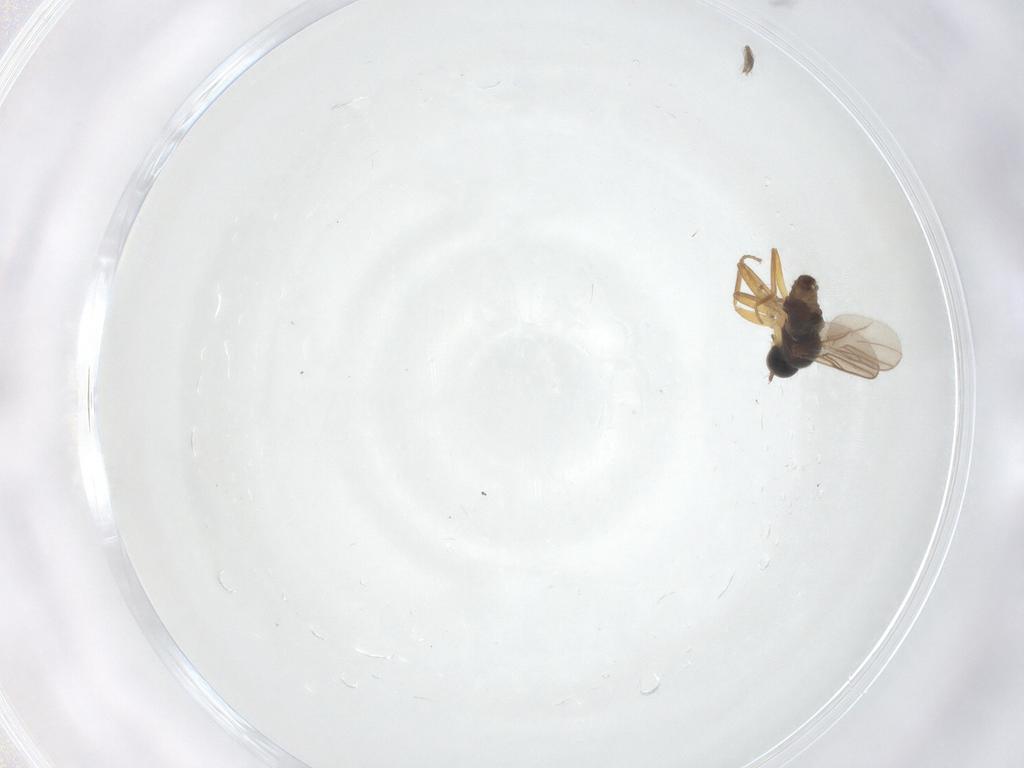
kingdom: Animalia
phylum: Arthropoda
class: Insecta
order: Diptera
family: Hybotidae
